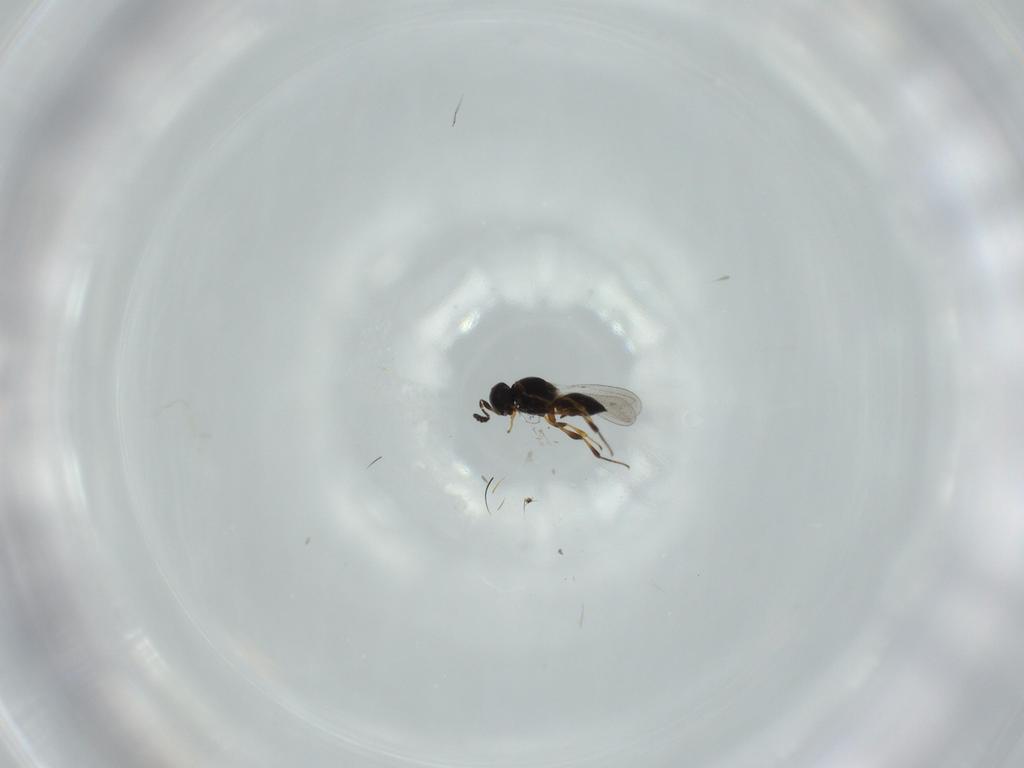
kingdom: Animalia
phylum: Arthropoda
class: Insecta
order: Hymenoptera
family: Platygastridae
